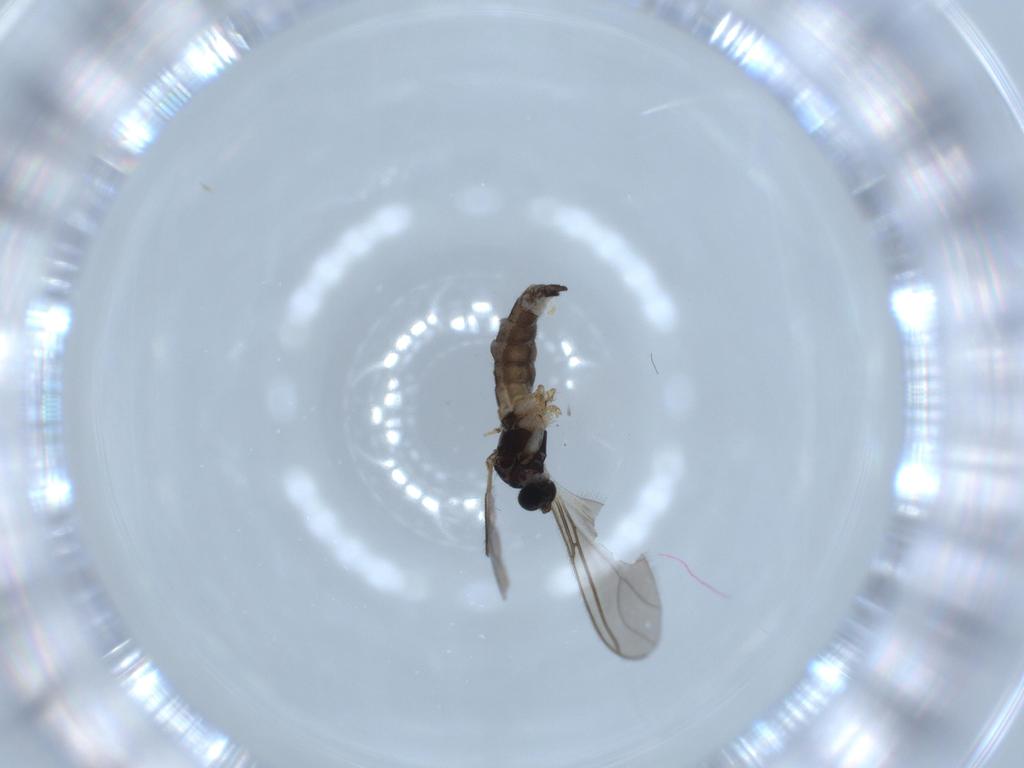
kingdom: Animalia
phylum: Arthropoda
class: Insecta
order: Diptera
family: Sciaridae
